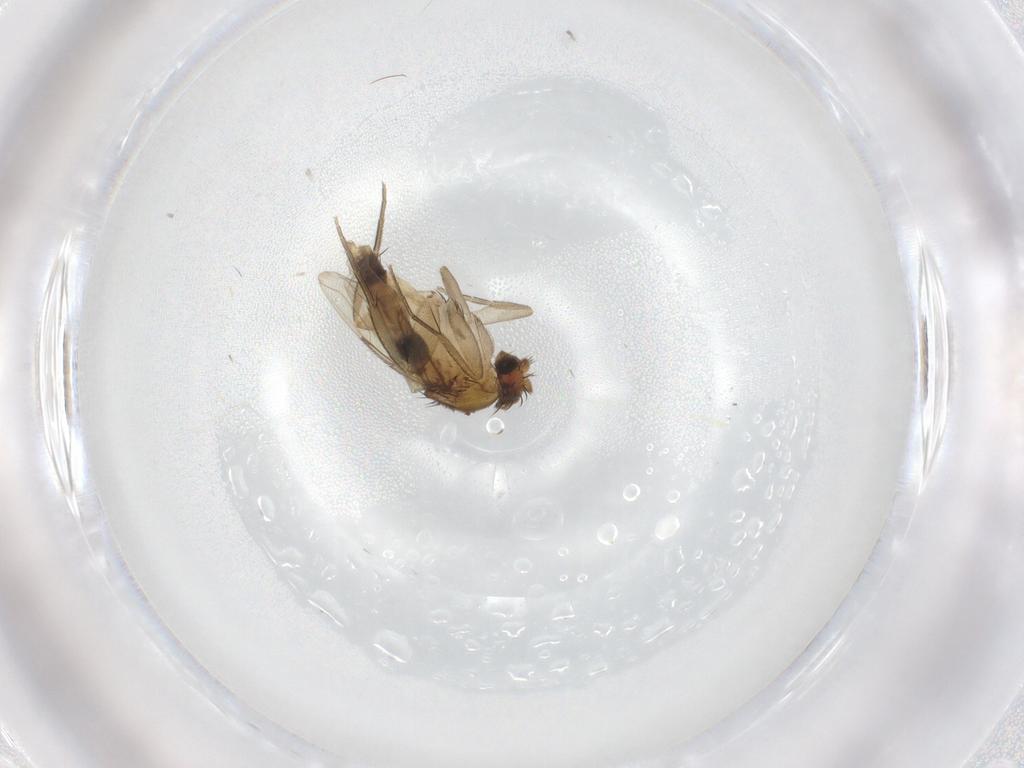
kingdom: Animalia
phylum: Arthropoda
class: Insecta
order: Diptera
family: Phoridae
